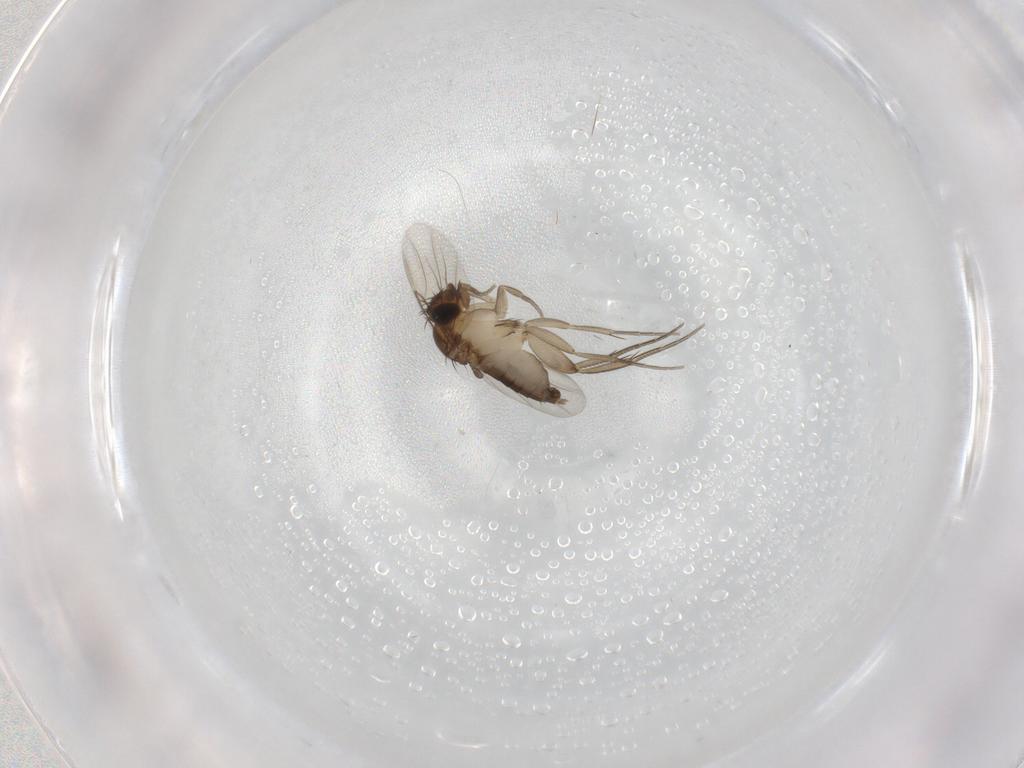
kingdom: Animalia
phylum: Arthropoda
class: Insecta
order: Diptera
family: Phoridae
